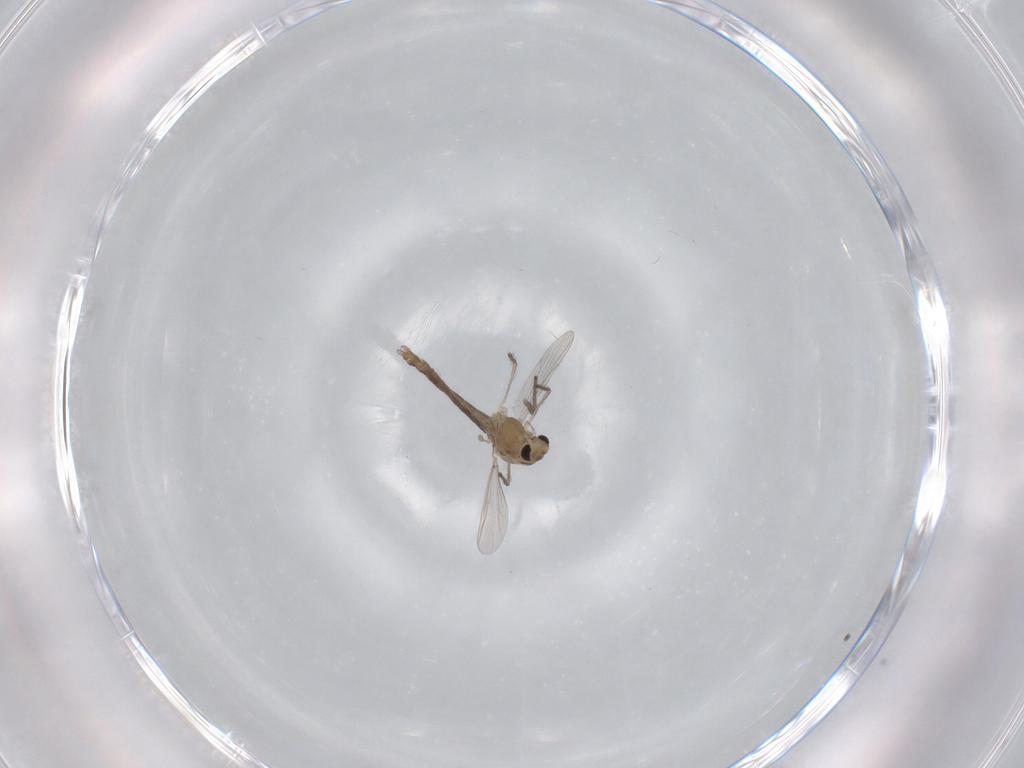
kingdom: Animalia
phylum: Arthropoda
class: Insecta
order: Diptera
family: Chironomidae
